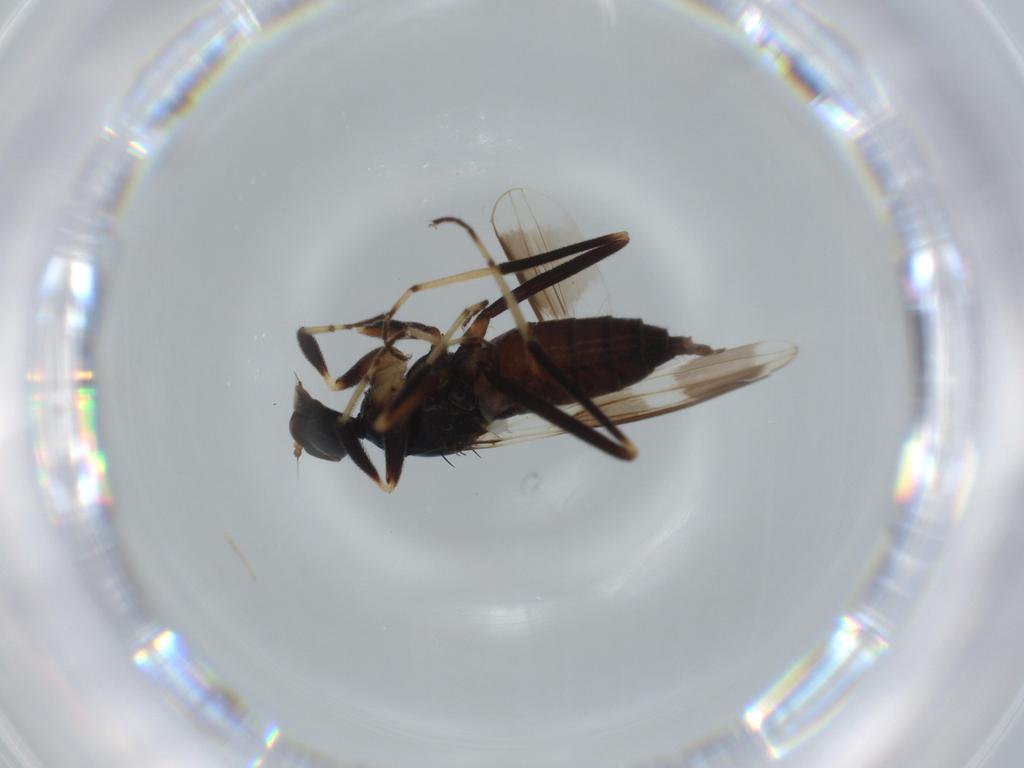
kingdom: Animalia
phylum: Arthropoda
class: Insecta
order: Diptera
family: Hybotidae
